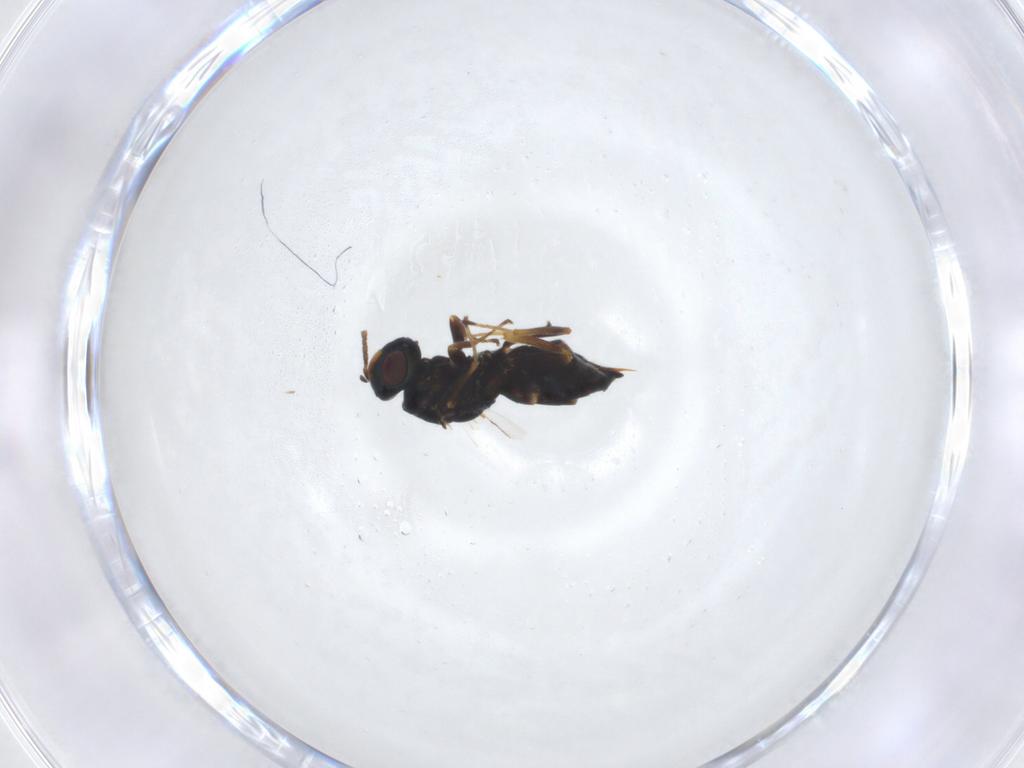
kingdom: Animalia
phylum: Arthropoda
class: Insecta
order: Hymenoptera
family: Pteromalidae
